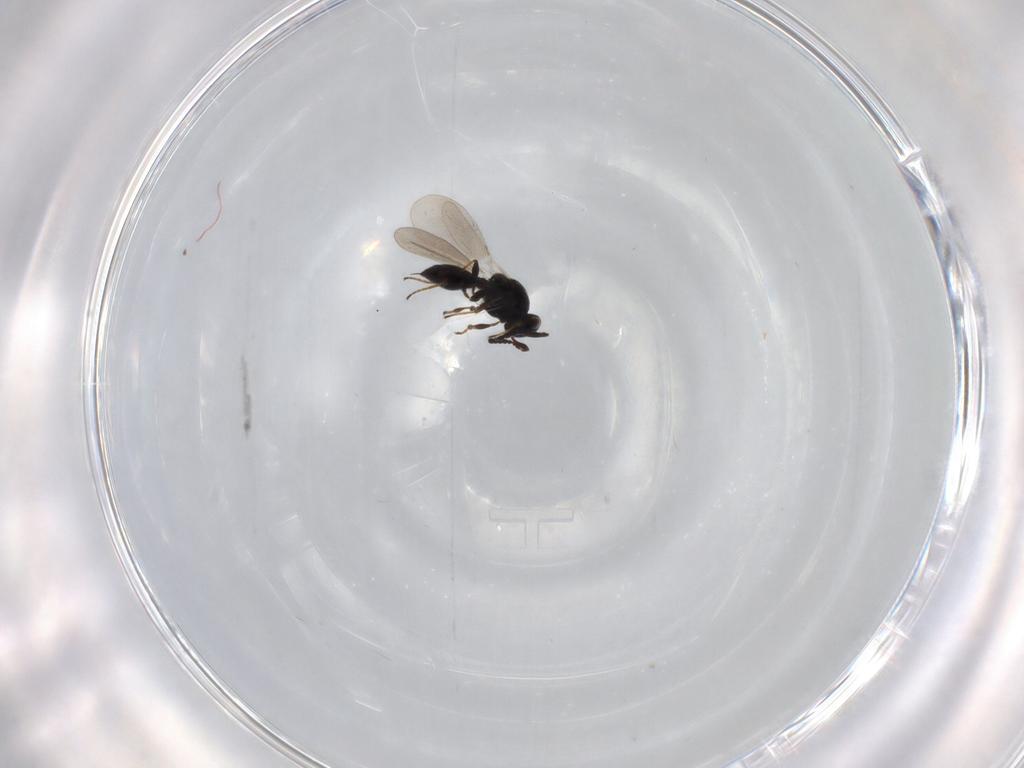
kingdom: Animalia
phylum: Arthropoda
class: Insecta
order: Hymenoptera
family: Platygastridae
